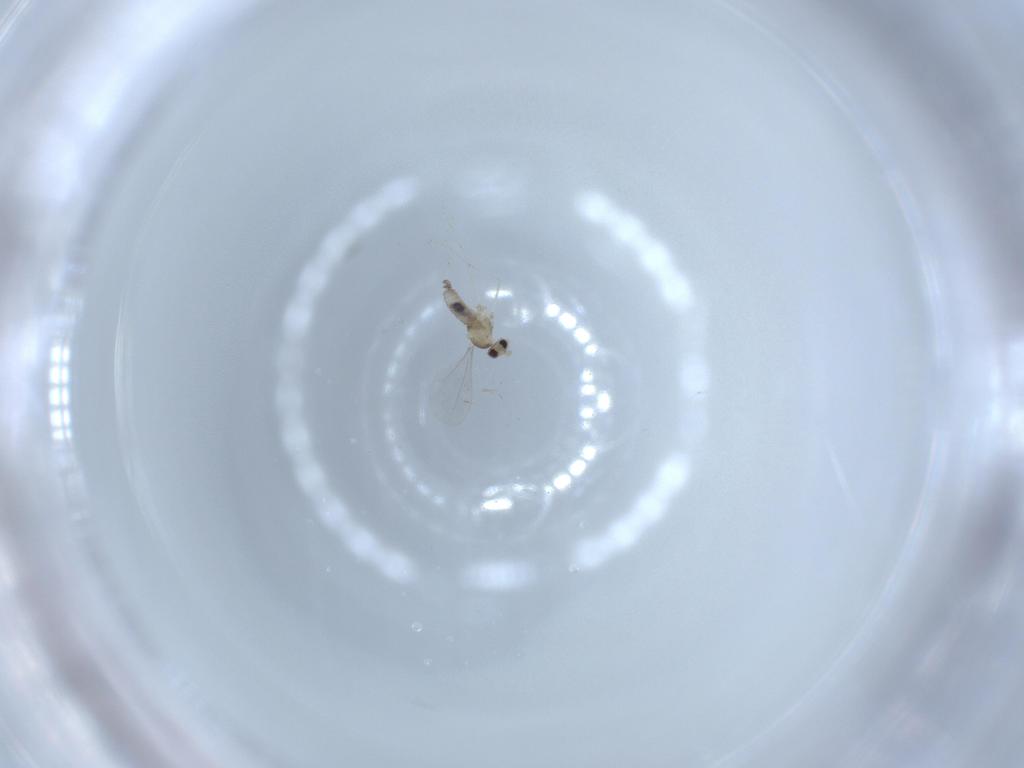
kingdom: Animalia
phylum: Arthropoda
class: Insecta
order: Diptera
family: Cecidomyiidae
